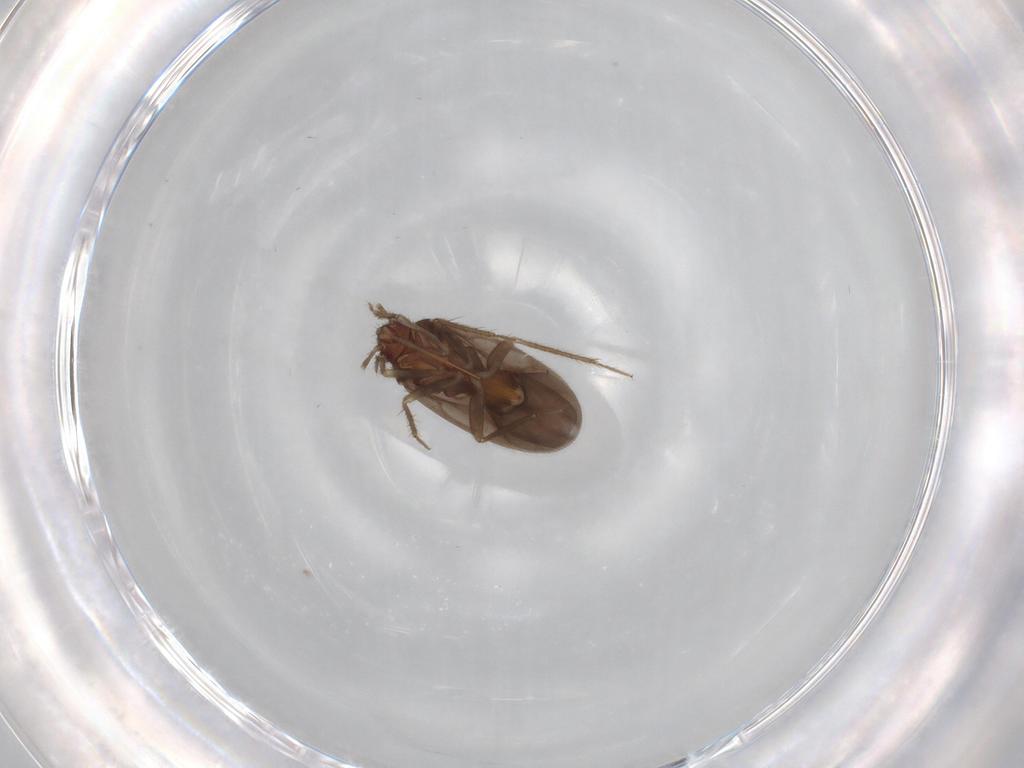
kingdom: Animalia
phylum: Arthropoda
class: Insecta
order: Hemiptera
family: Ceratocombidae
